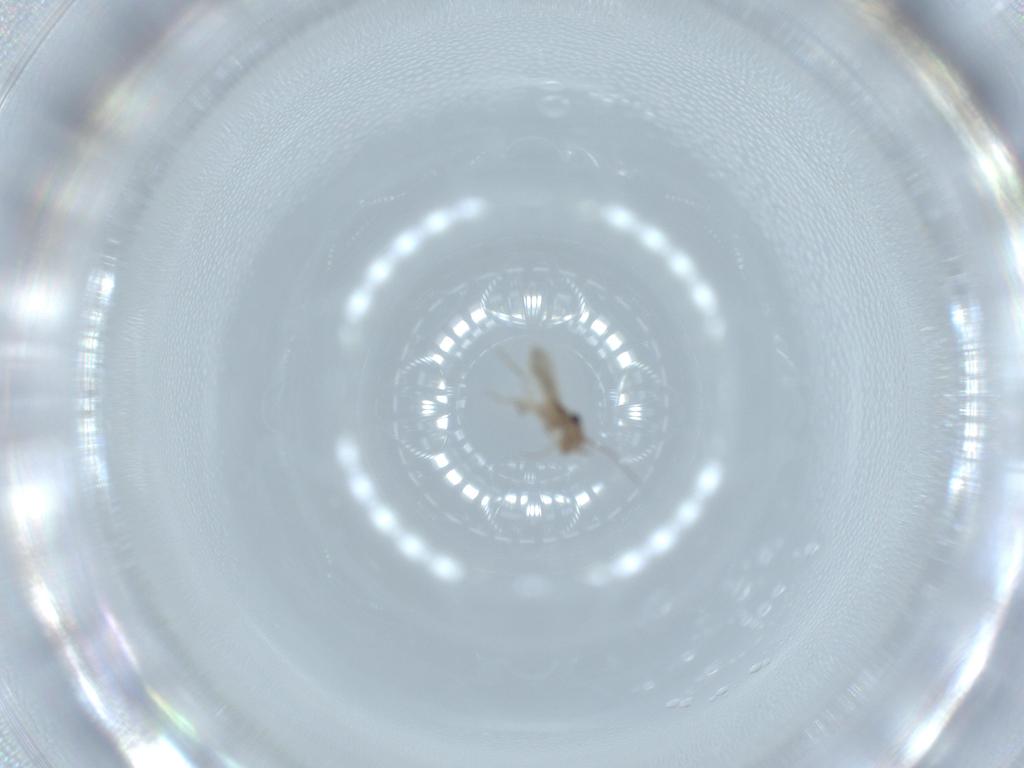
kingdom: Animalia
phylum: Arthropoda
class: Insecta
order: Psocodea
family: Lepidopsocidae
